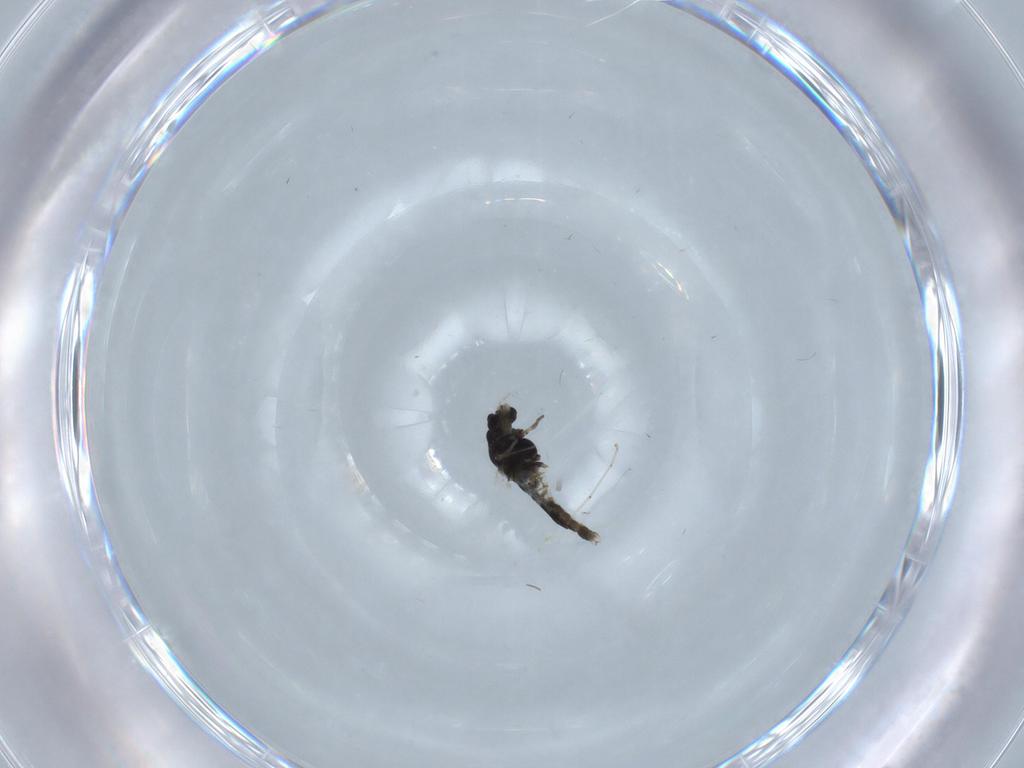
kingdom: Animalia
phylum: Arthropoda
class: Insecta
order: Diptera
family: Chironomidae
